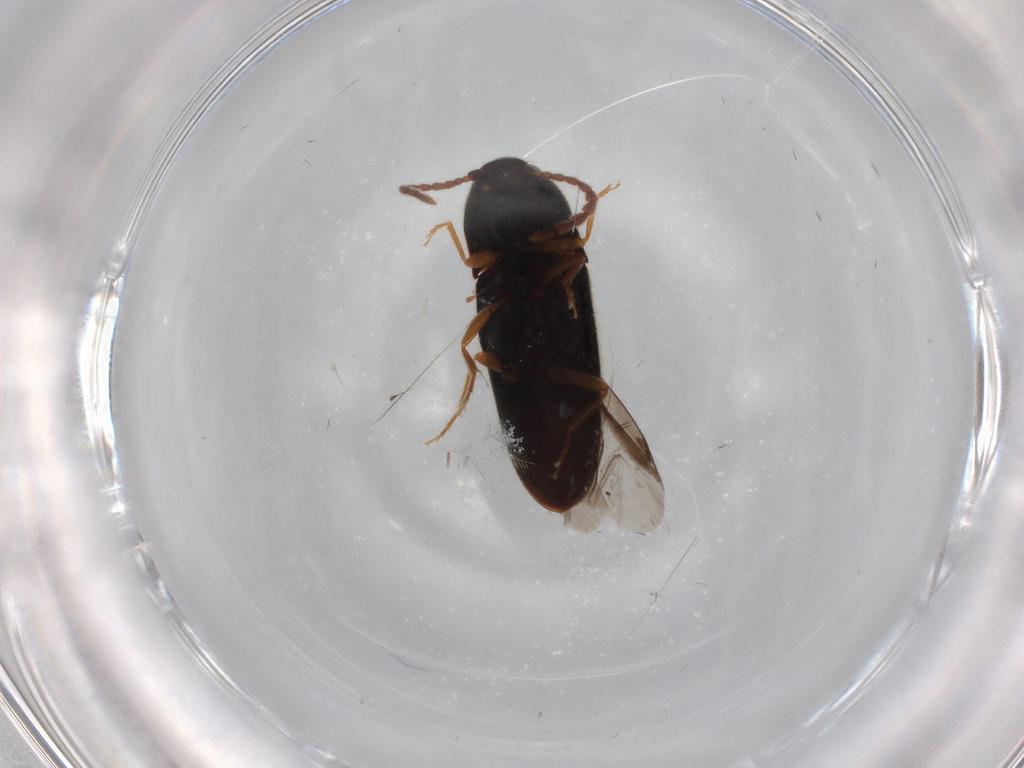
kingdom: Animalia
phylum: Arthropoda
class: Insecta
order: Coleoptera
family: Elateridae
